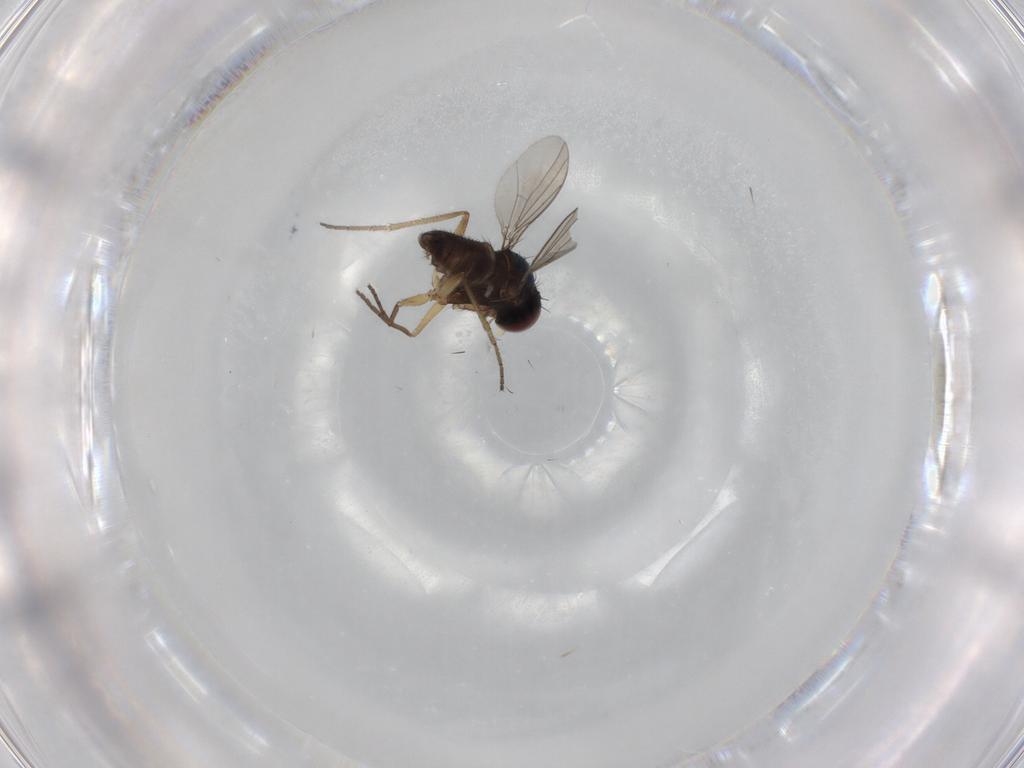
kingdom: Animalia
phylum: Arthropoda
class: Insecta
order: Diptera
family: Dolichopodidae
